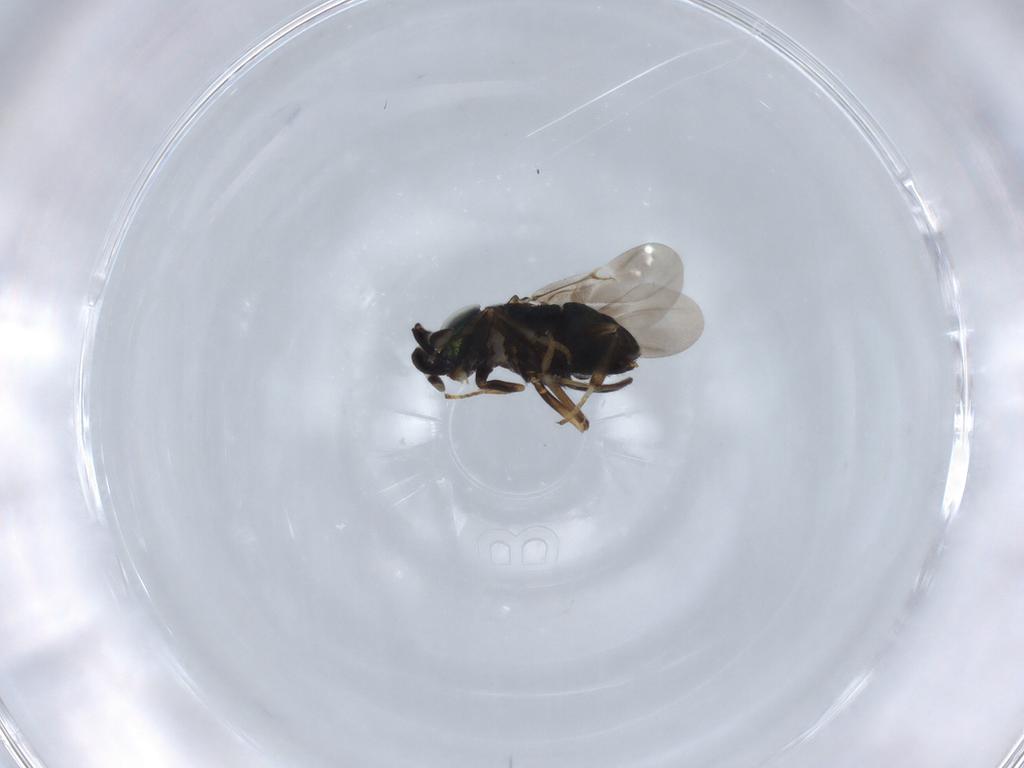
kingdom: Animalia
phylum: Arthropoda
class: Insecta
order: Hymenoptera
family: Encyrtidae
